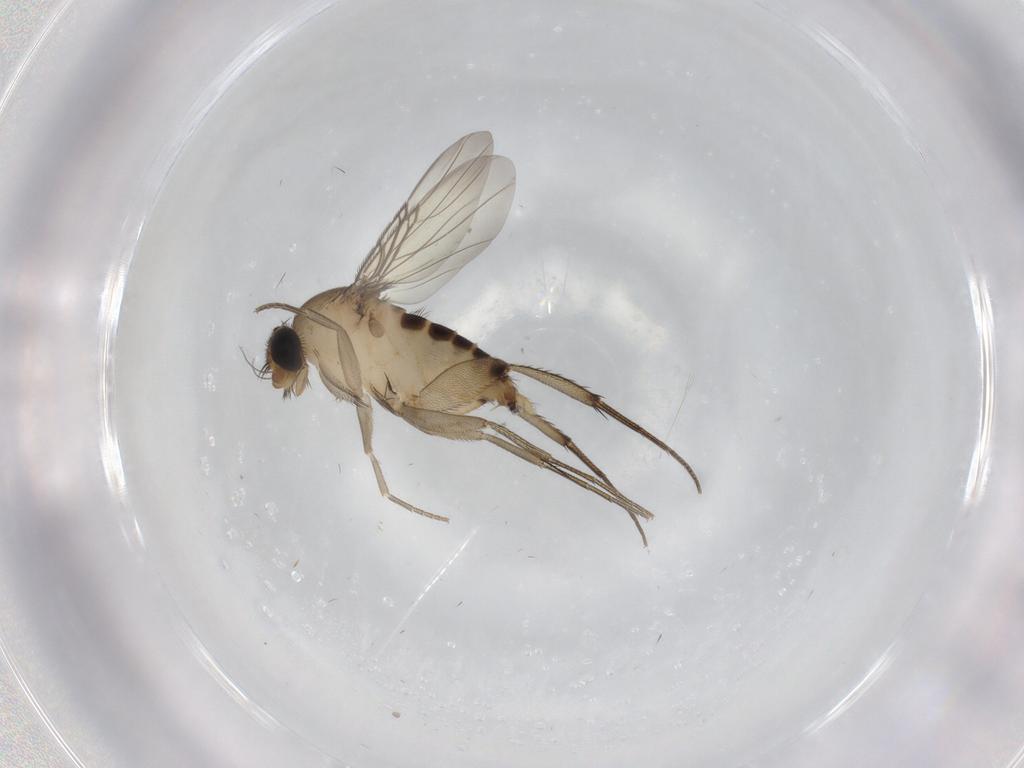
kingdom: Animalia
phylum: Arthropoda
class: Insecta
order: Diptera
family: Phoridae
